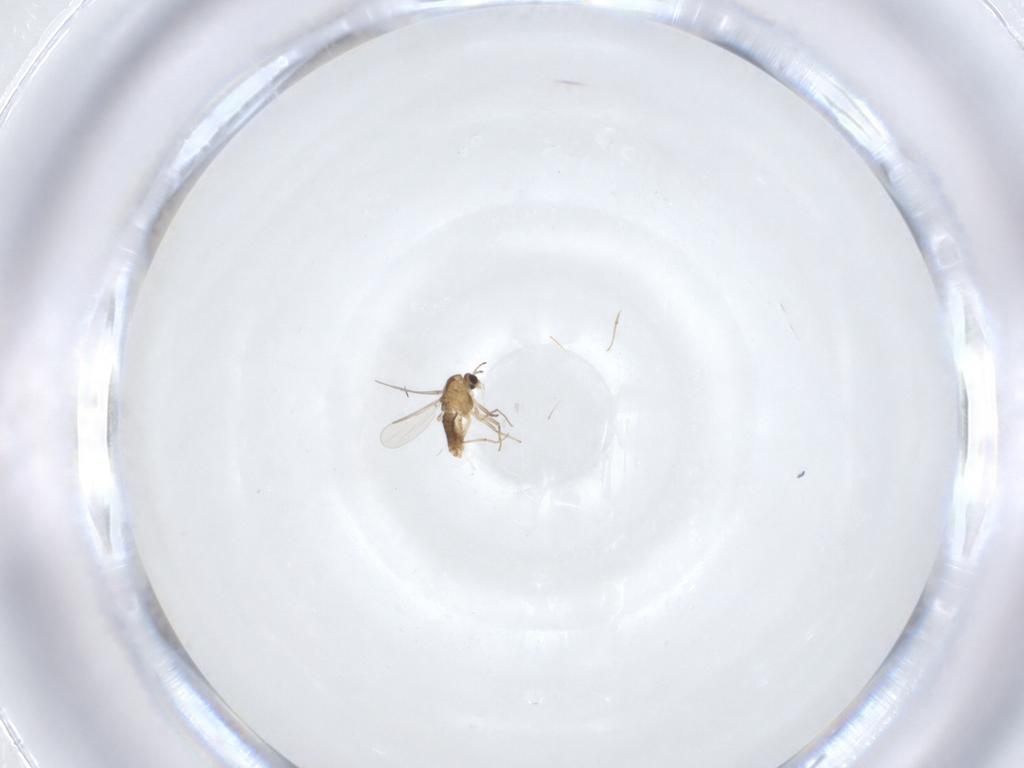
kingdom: Animalia
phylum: Arthropoda
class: Insecta
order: Diptera
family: Chironomidae
